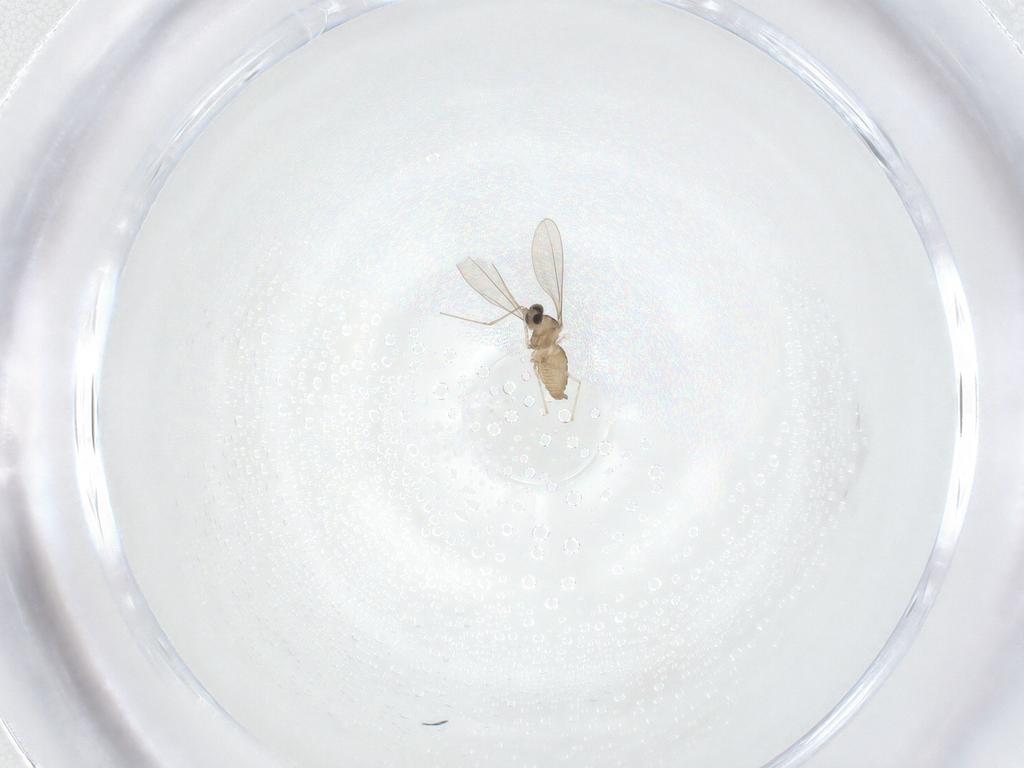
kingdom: Animalia
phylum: Arthropoda
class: Insecta
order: Diptera
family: Cecidomyiidae
